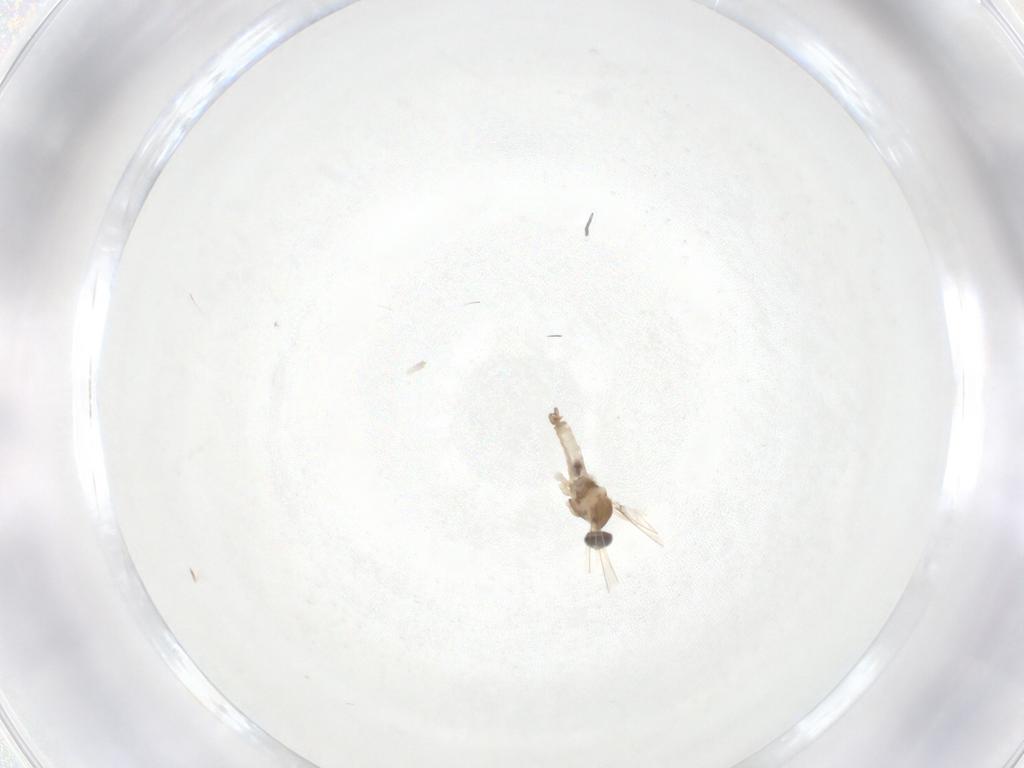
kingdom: Animalia
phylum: Arthropoda
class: Insecta
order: Diptera
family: Cecidomyiidae
